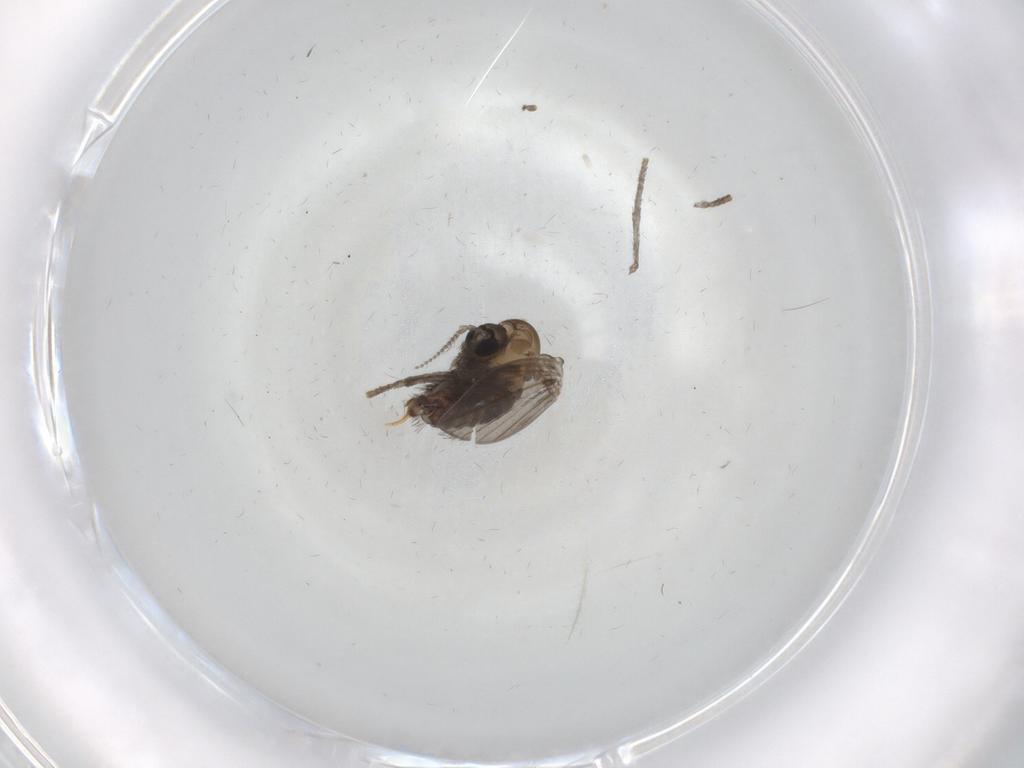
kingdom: Animalia
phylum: Arthropoda
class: Insecta
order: Diptera
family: Psychodidae
